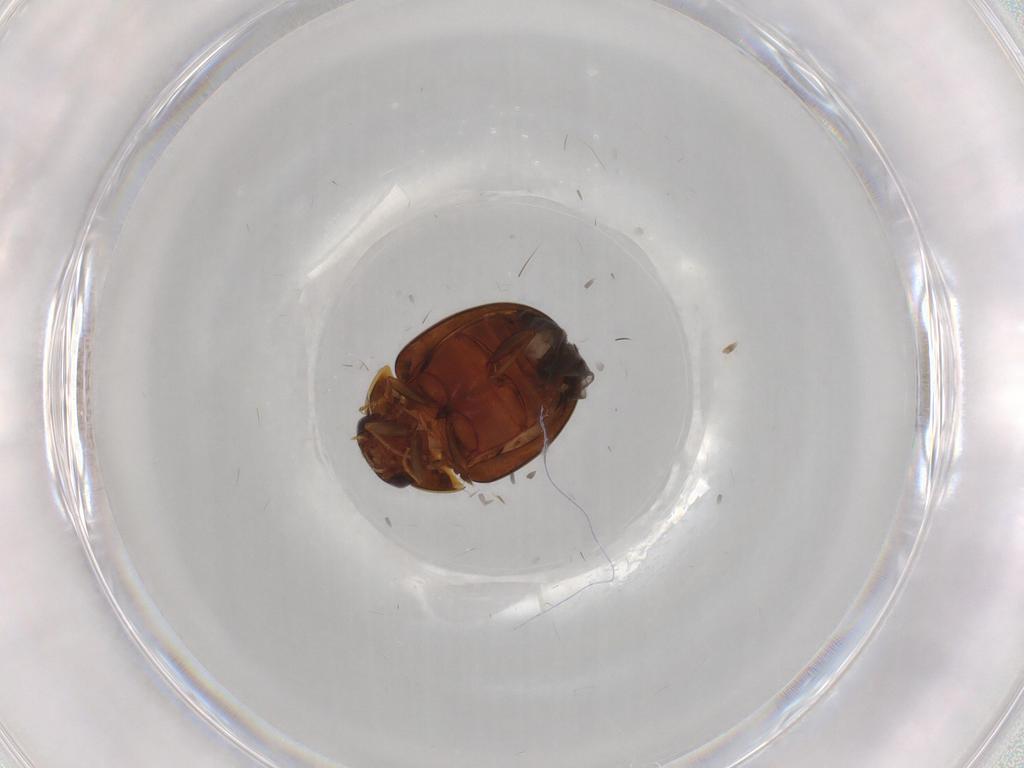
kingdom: Animalia
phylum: Arthropoda
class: Insecta
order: Coleoptera
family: Leiodidae
